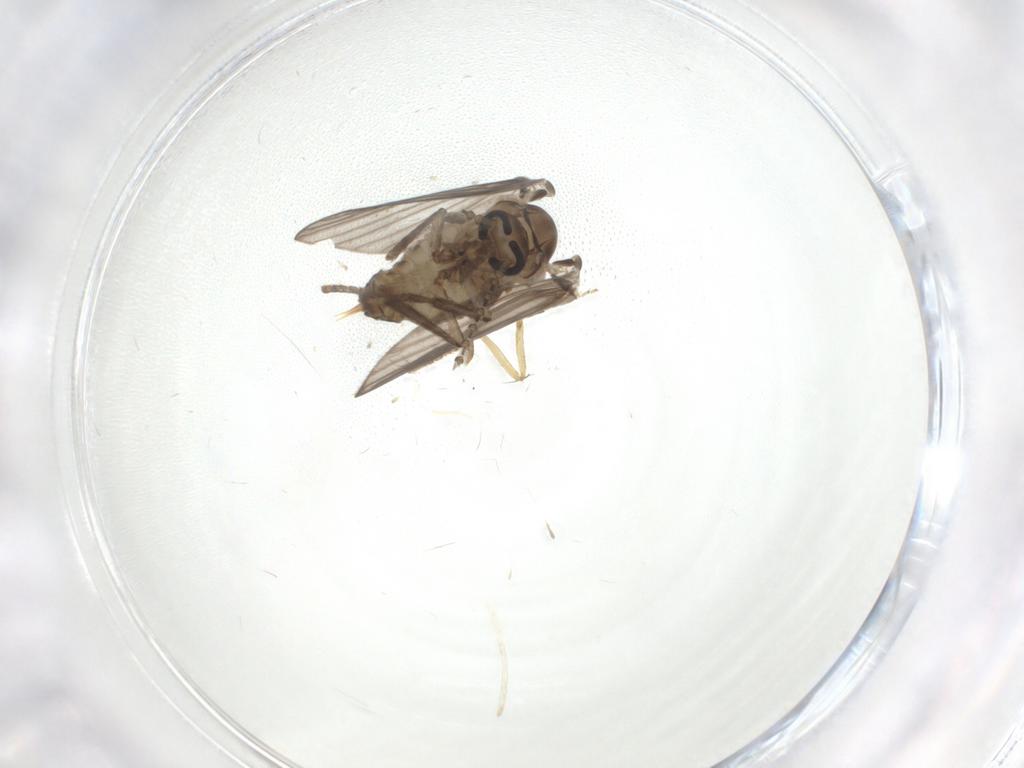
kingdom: Animalia
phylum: Arthropoda
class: Insecta
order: Diptera
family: Psychodidae
